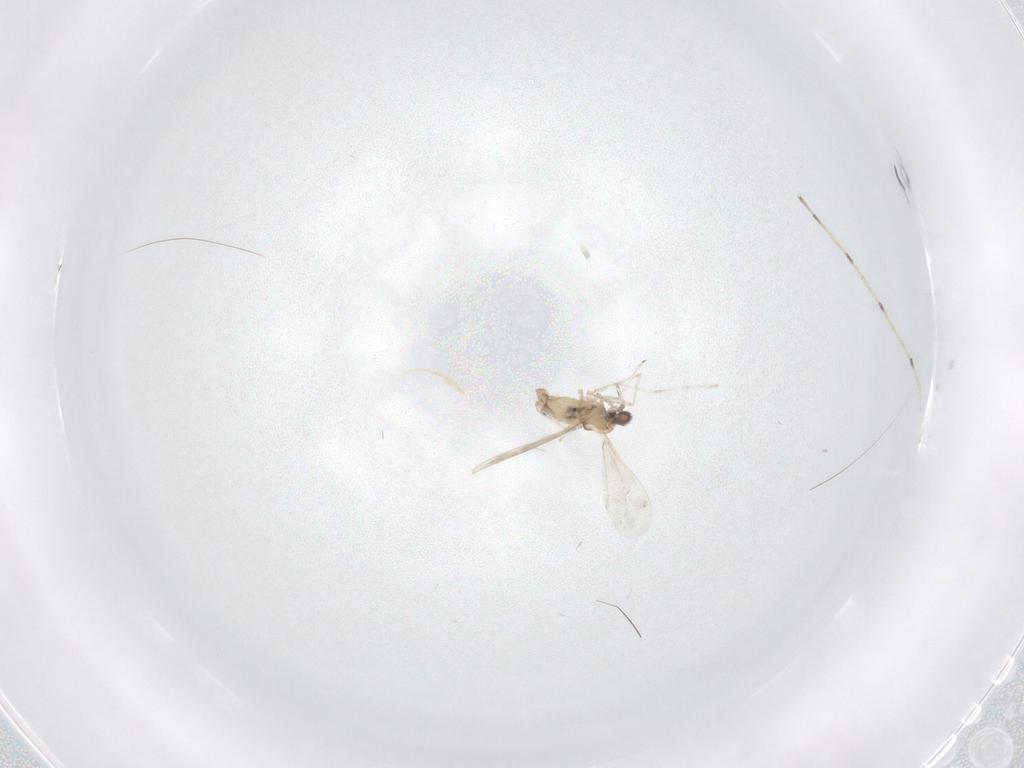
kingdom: Animalia
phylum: Arthropoda
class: Insecta
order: Diptera
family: Cecidomyiidae
